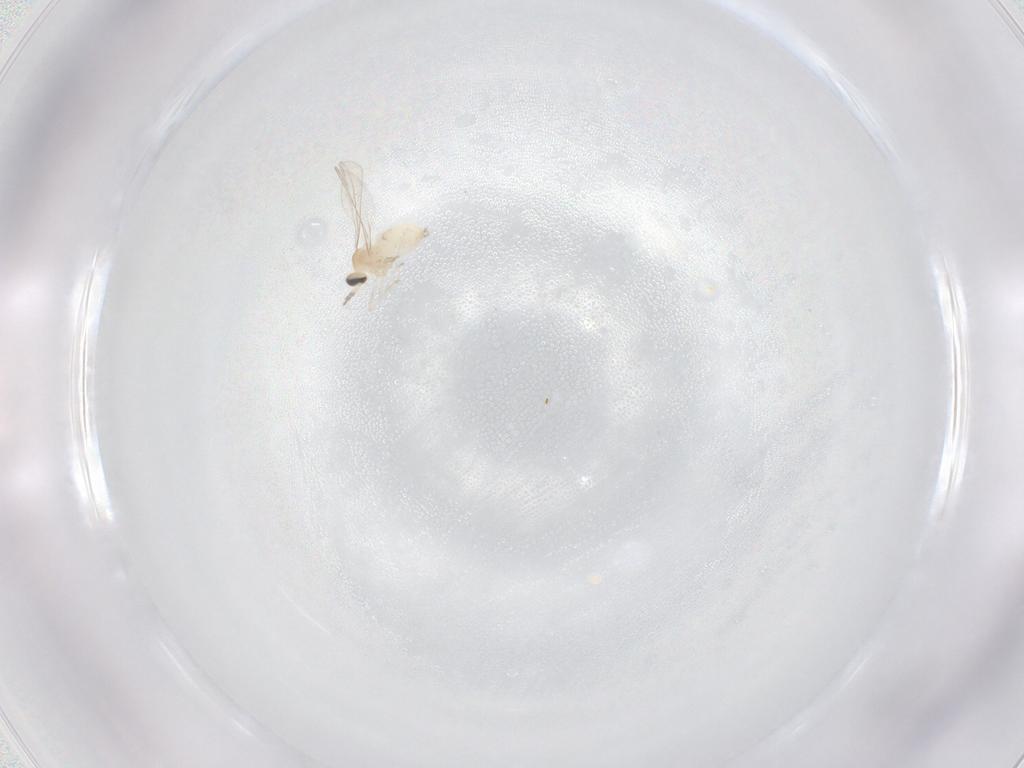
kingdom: Animalia
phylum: Arthropoda
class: Insecta
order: Diptera
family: Cecidomyiidae
